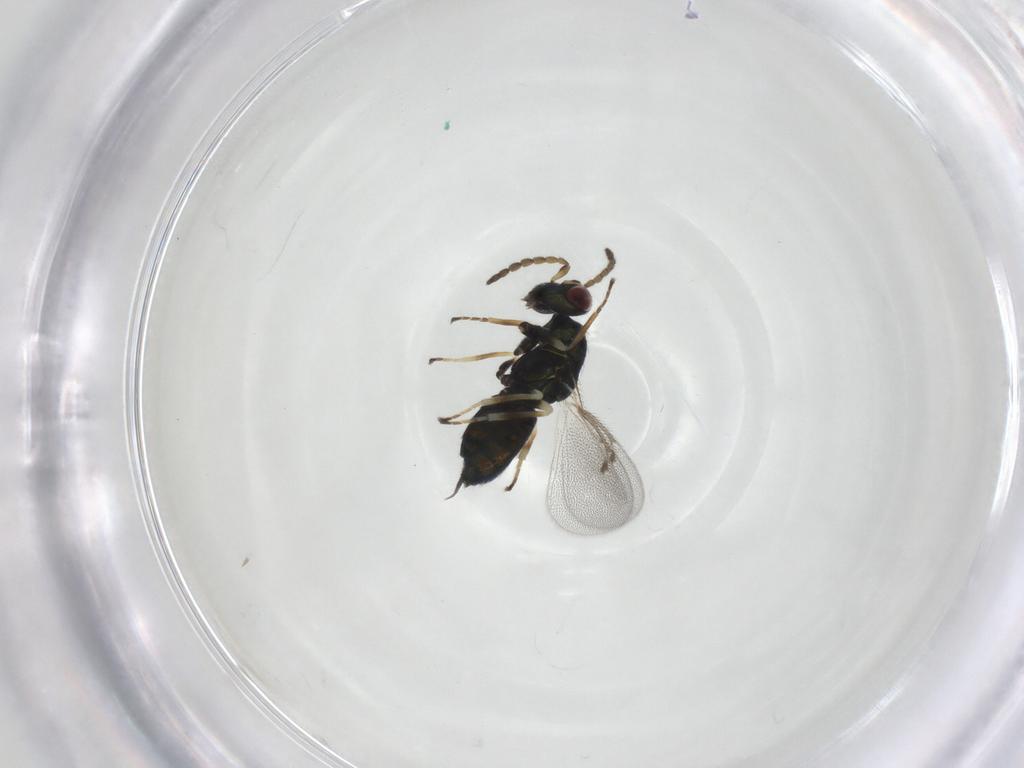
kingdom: Animalia
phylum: Arthropoda
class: Insecta
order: Hymenoptera
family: Eulophidae
